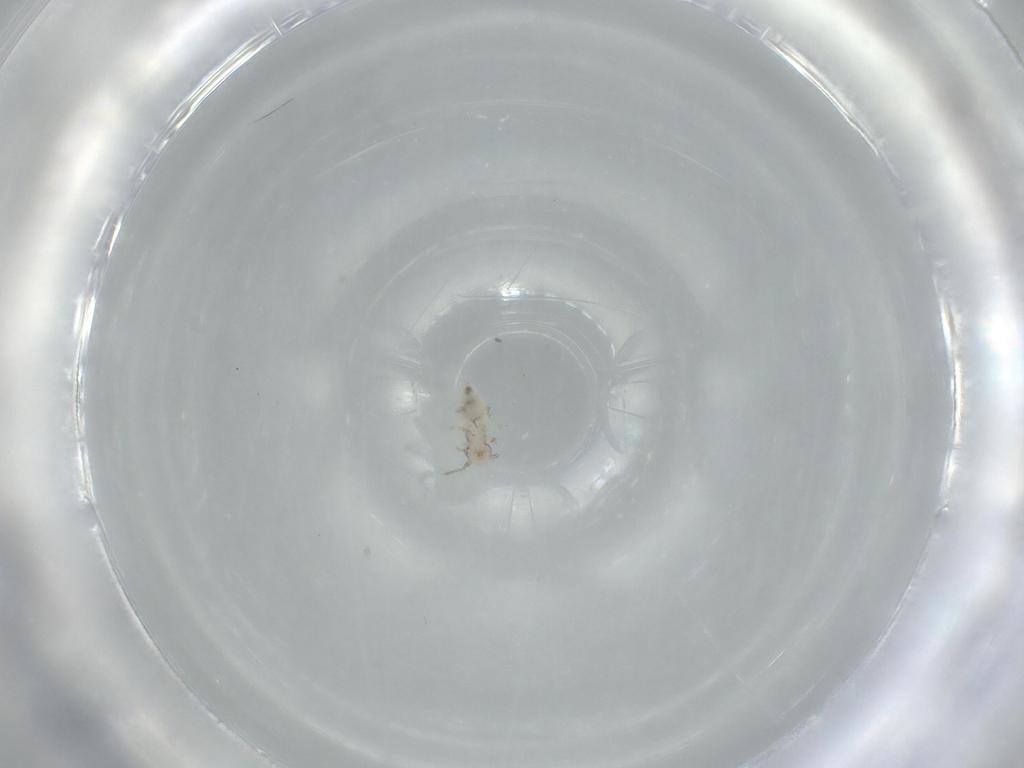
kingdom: Animalia
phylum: Arthropoda
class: Insecta
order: Psocodea
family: Pseudocaeciliidae
